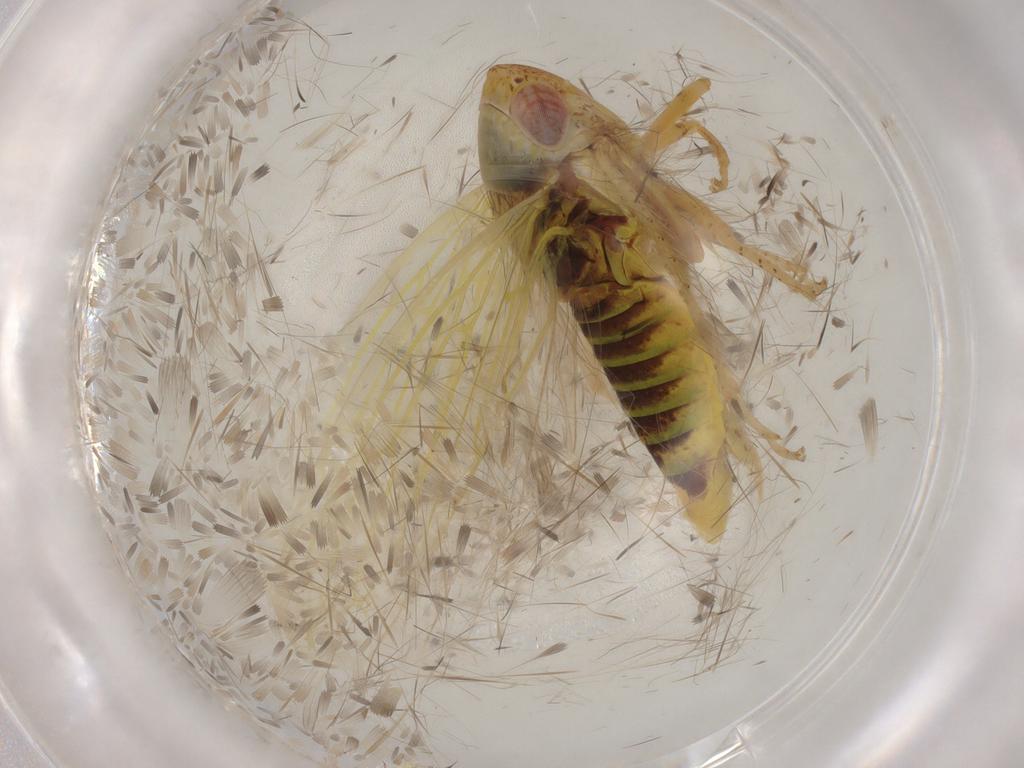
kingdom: Animalia
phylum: Arthropoda
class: Insecta
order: Hemiptera
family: Cicadellidae
